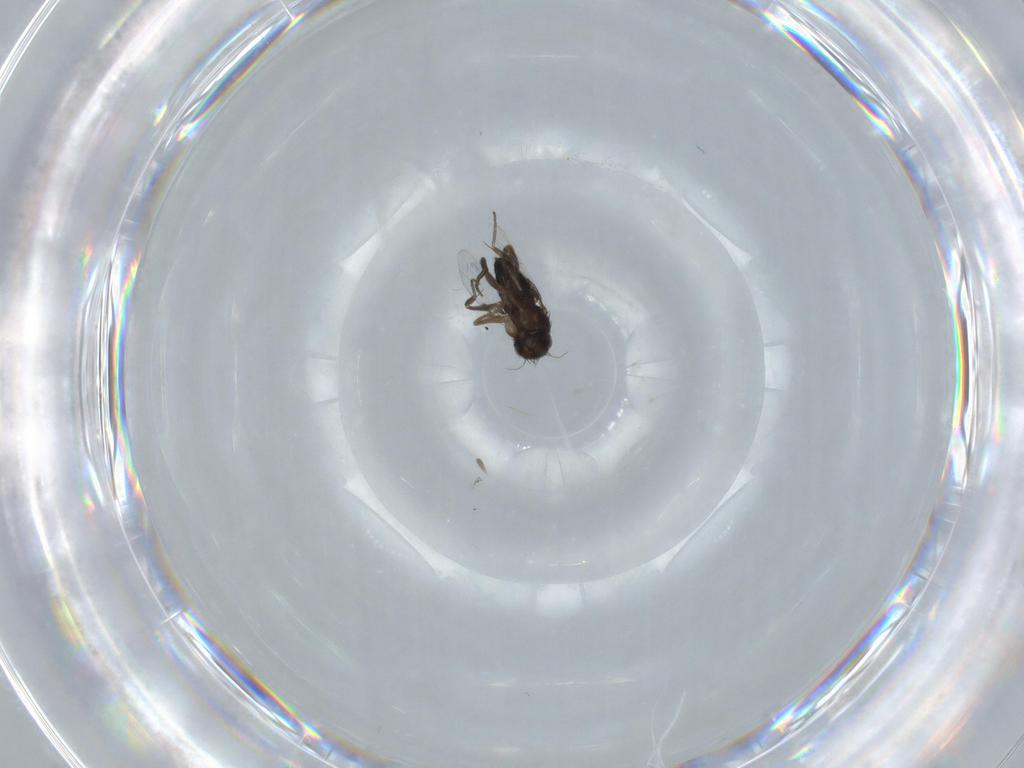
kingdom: Animalia
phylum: Arthropoda
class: Insecta
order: Diptera
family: Phoridae
